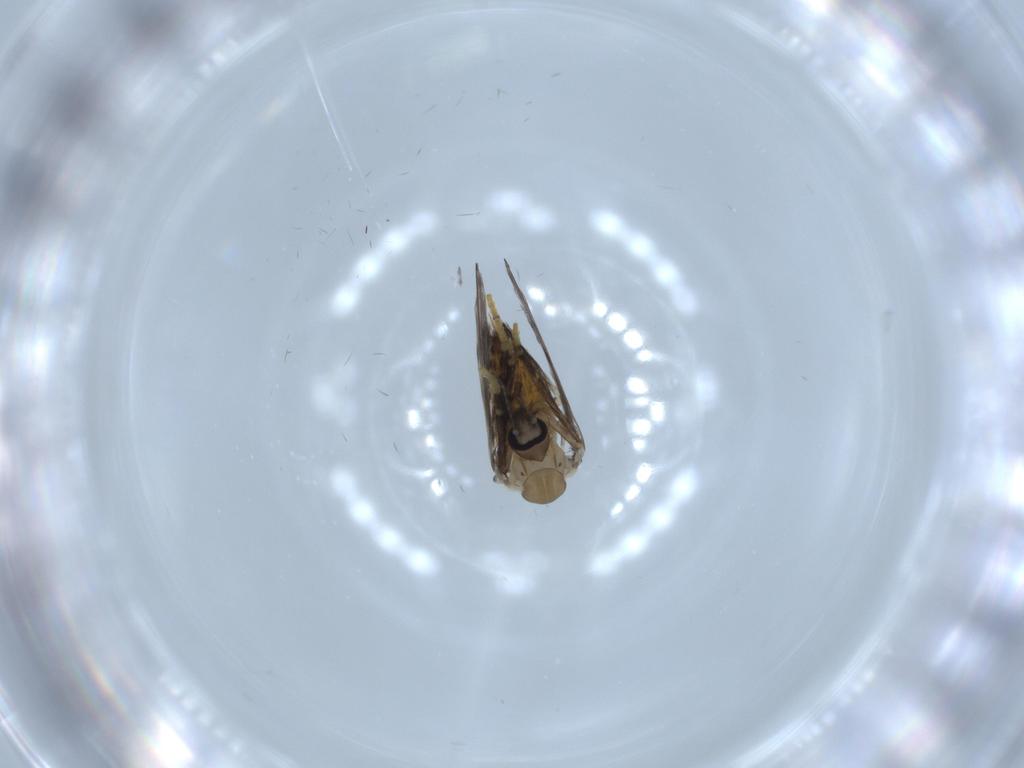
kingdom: Animalia
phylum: Arthropoda
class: Insecta
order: Diptera
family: Psychodidae
